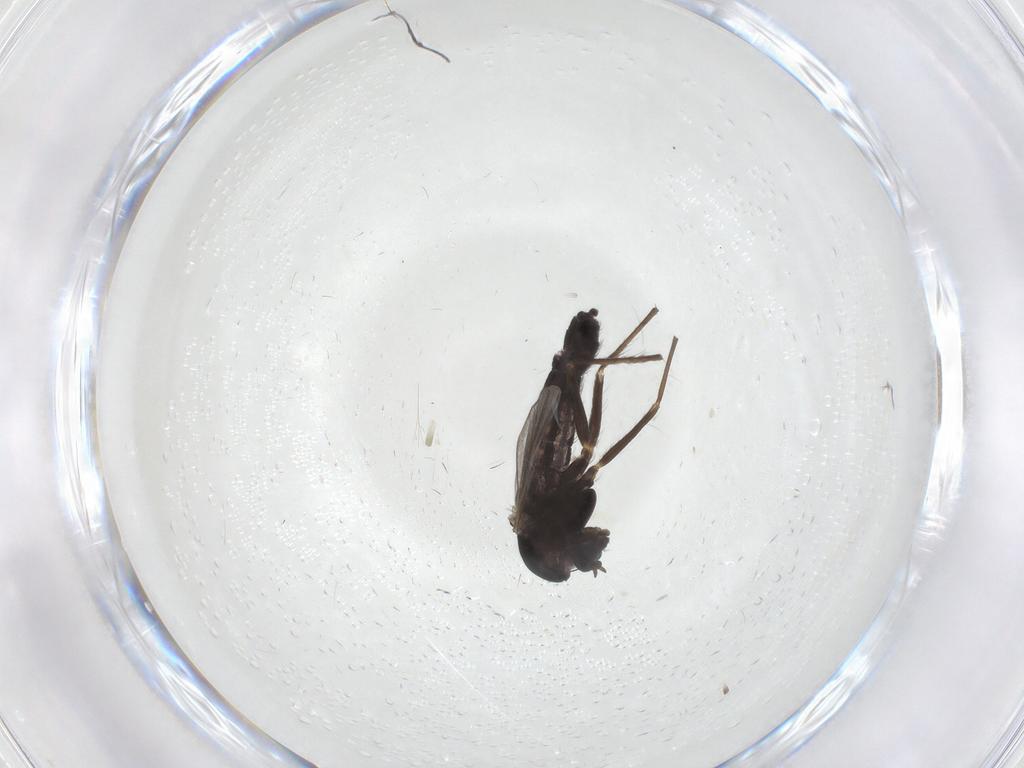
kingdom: Animalia
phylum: Arthropoda
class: Insecta
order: Diptera
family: Chironomidae
